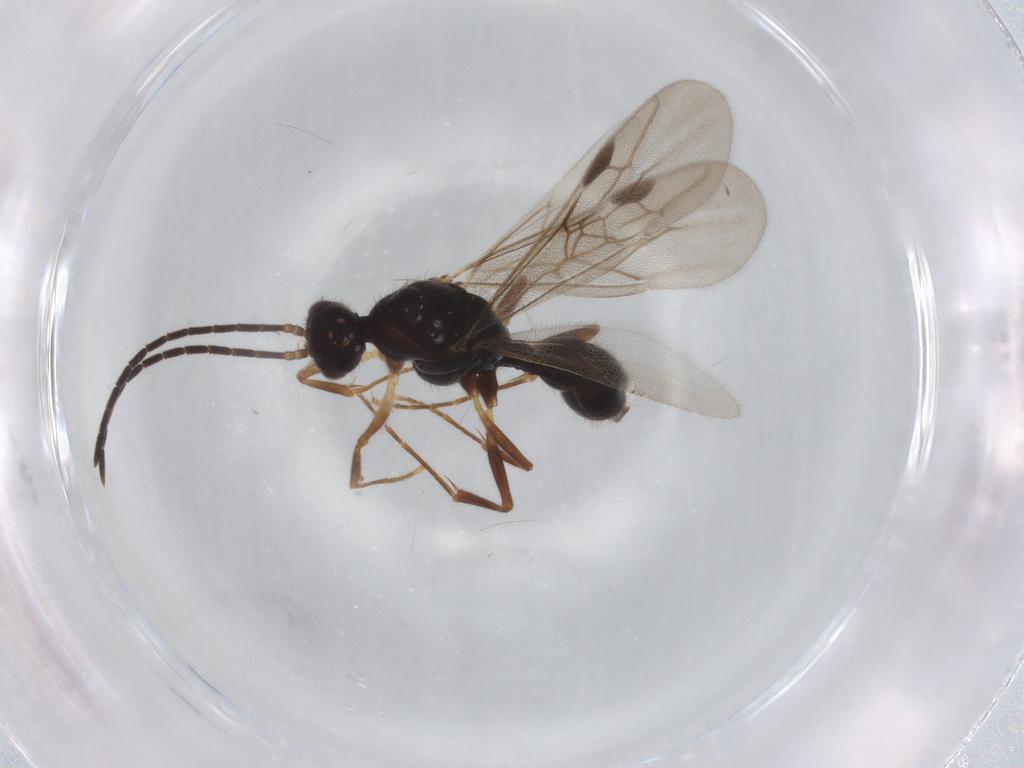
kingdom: Animalia
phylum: Arthropoda
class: Insecta
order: Hymenoptera
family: Formicidae
